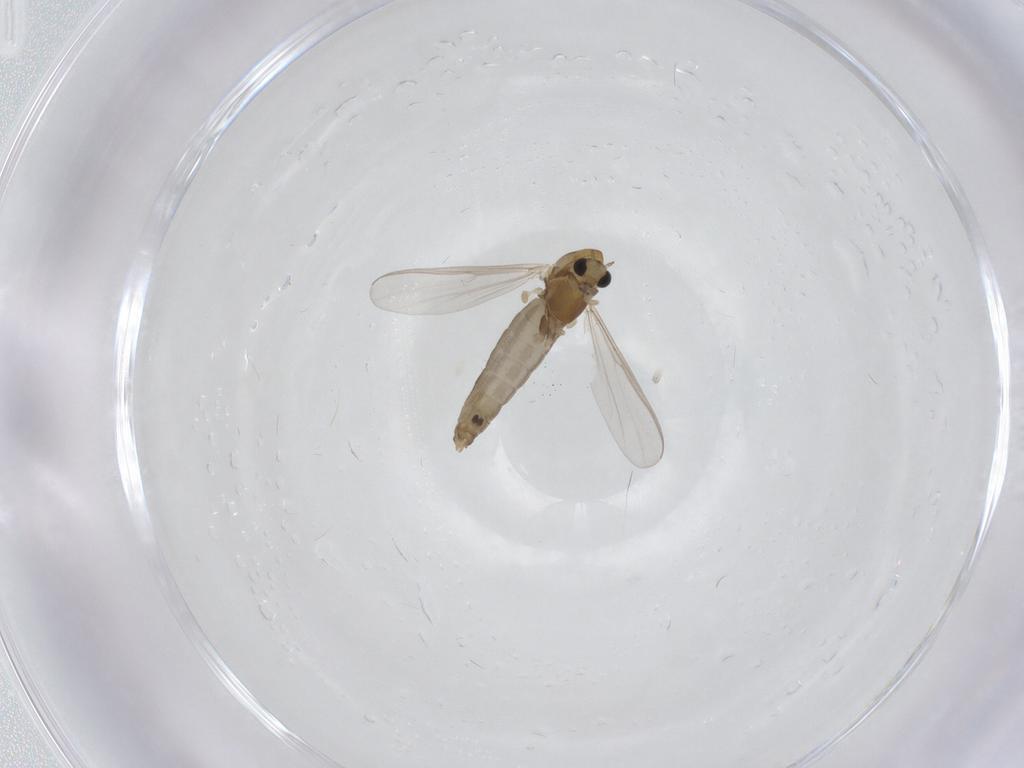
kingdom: Animalia
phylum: Arthropoda
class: Insecta
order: Diptera
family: Chironomidae
